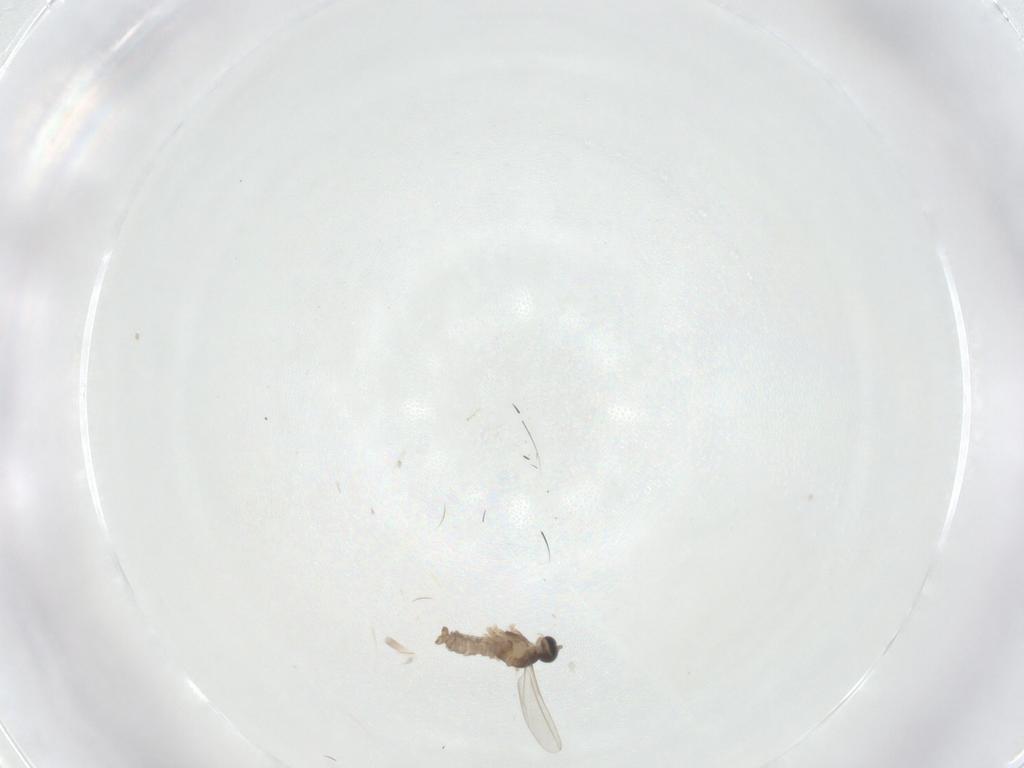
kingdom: Animalia
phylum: Arthropoda
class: Insecta
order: Diptera
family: Cecidomyiidae
